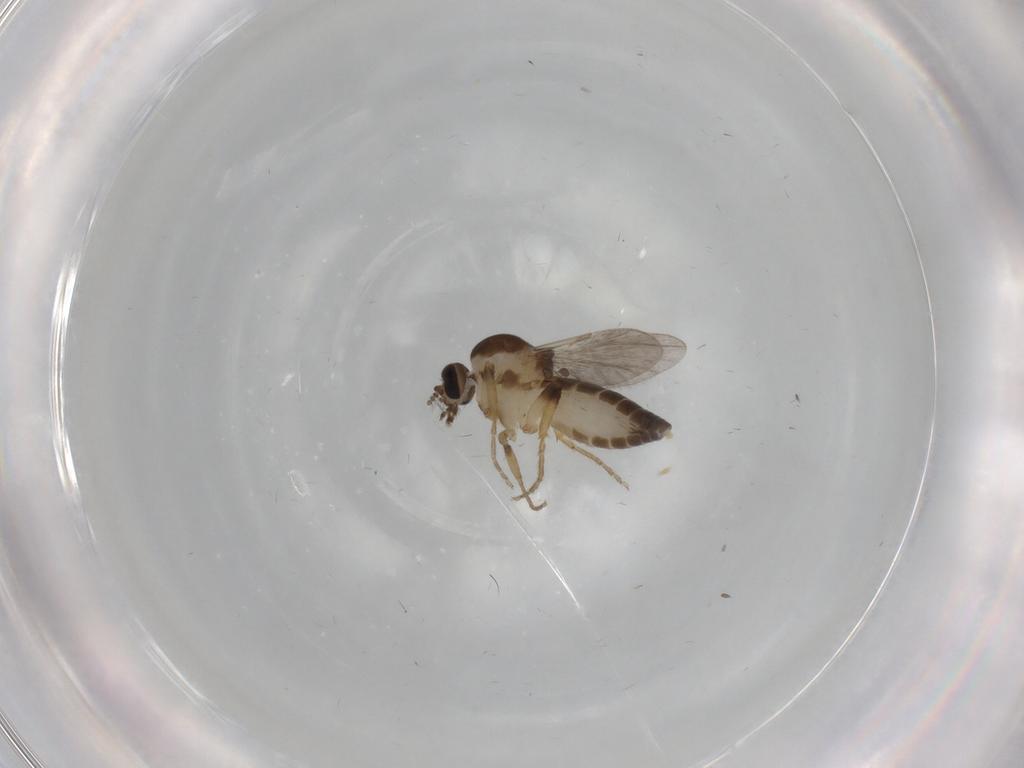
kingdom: Animalia
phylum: Arthropoda
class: Insecta
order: Diptera
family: Ceratopogonidae
